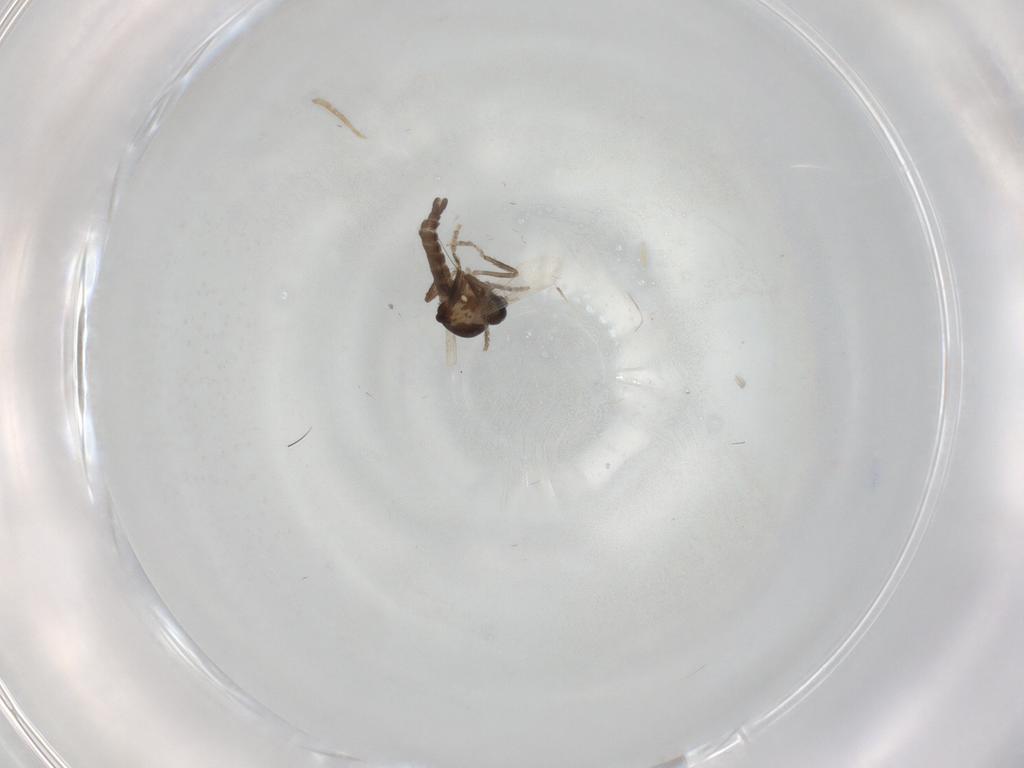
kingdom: Animalia
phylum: Arthropoda
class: Insecta
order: Diptera
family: Ceratopogonidae
